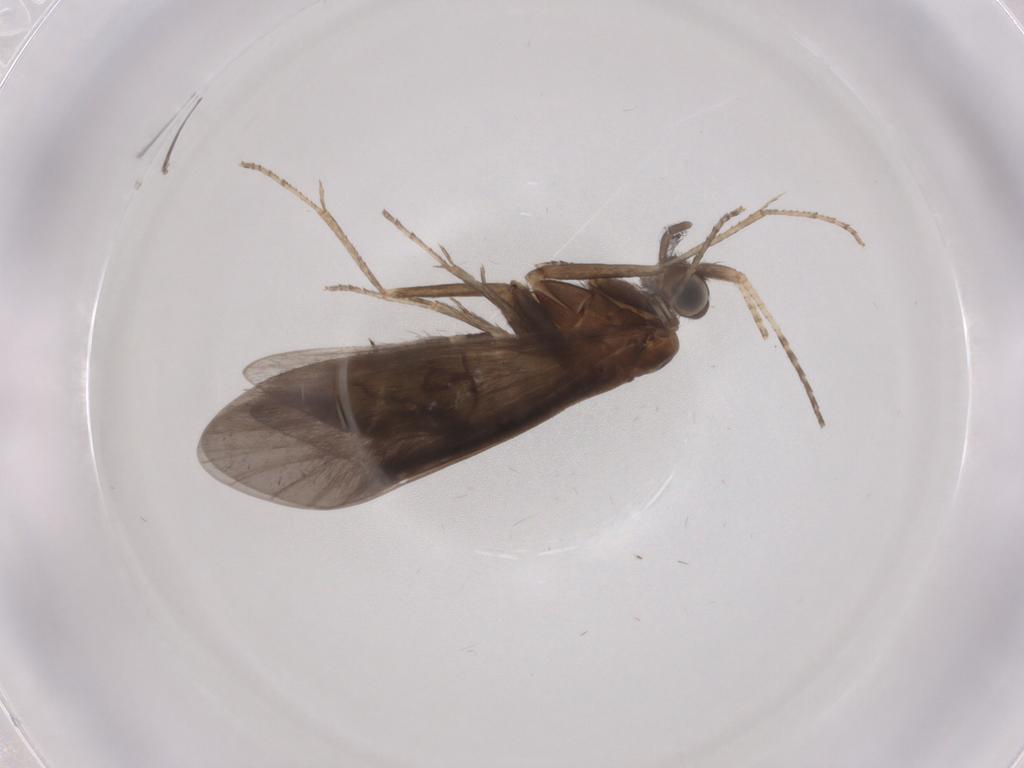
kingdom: Animalia
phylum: Arthropoda
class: Insecta
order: Trichoptera
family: Helicopsychidae
